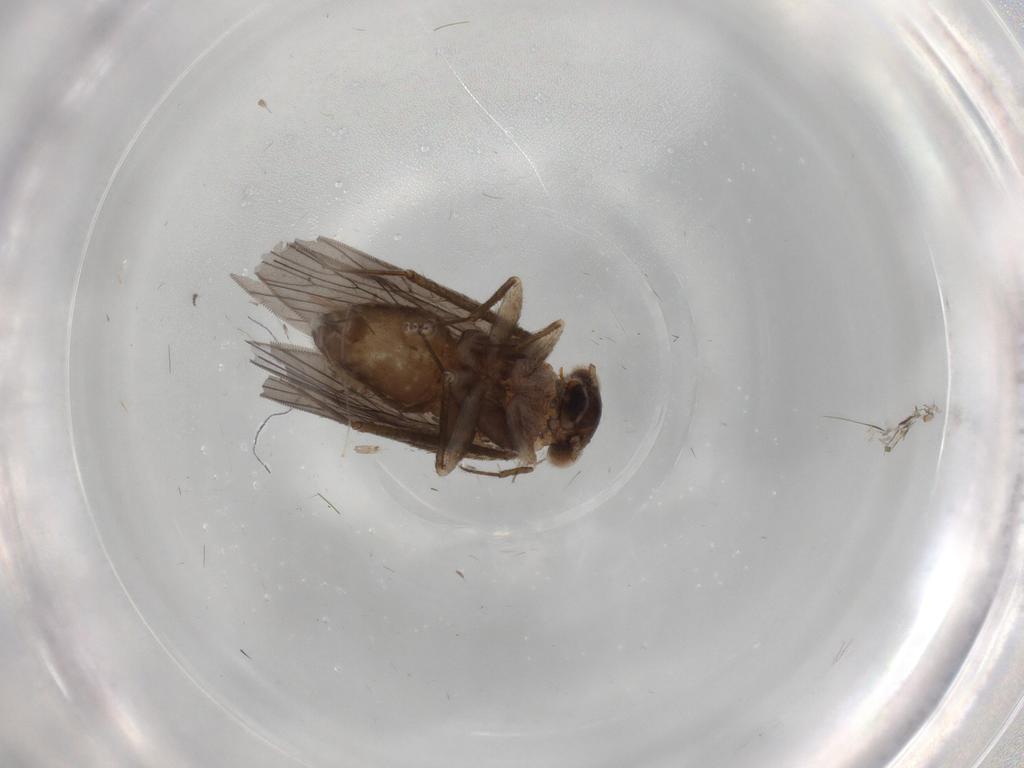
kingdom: Animalia
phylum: Arthropoda
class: Insecta
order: Psocodea
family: Lepidopsocidae
